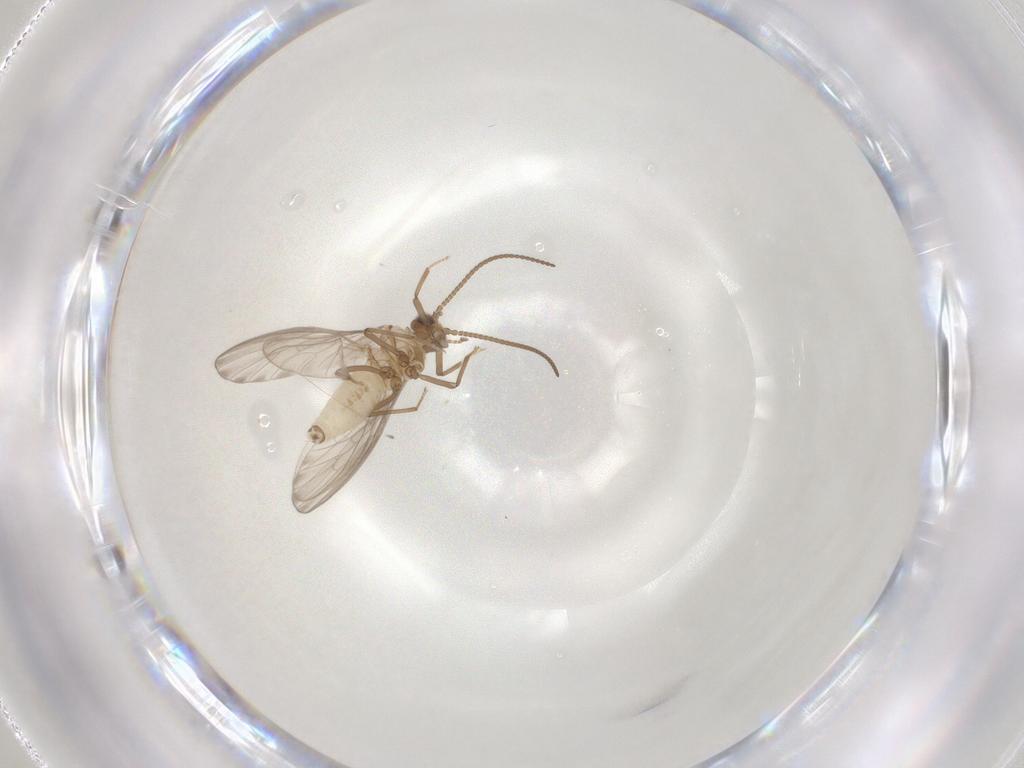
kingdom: Animalia
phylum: Arthropoda
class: Insecta
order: Neuroptera
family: Coniopterygidae
